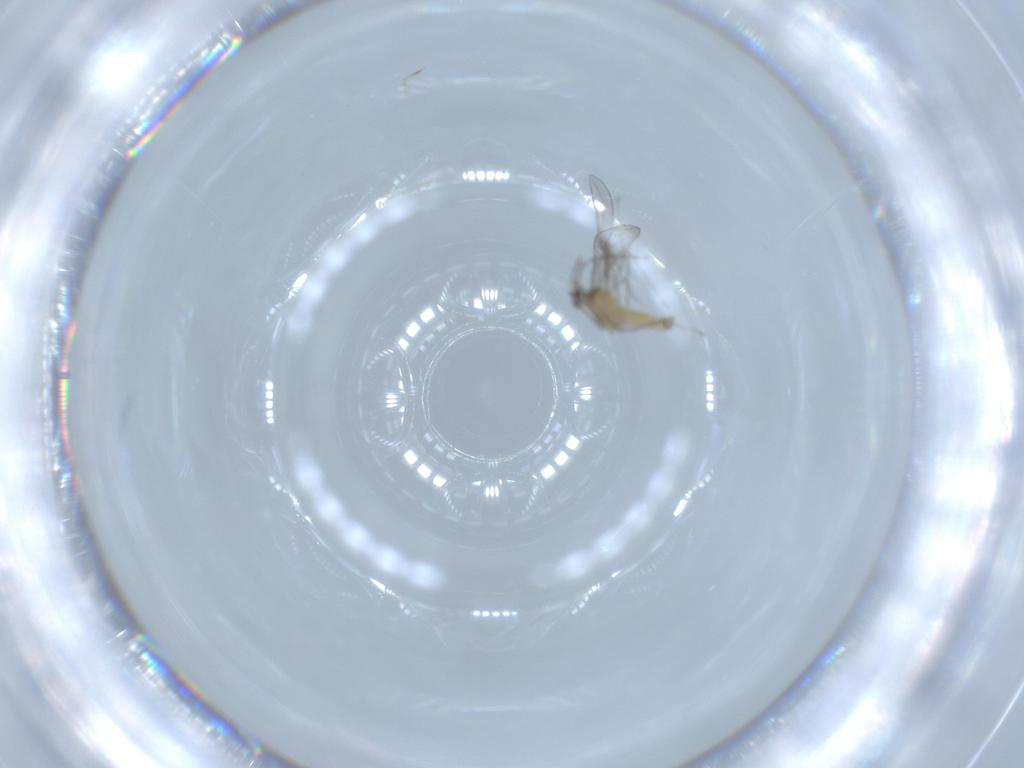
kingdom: Animalia
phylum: Arthropoda
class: Insecta
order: Diptera
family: Cecidomyiidae
